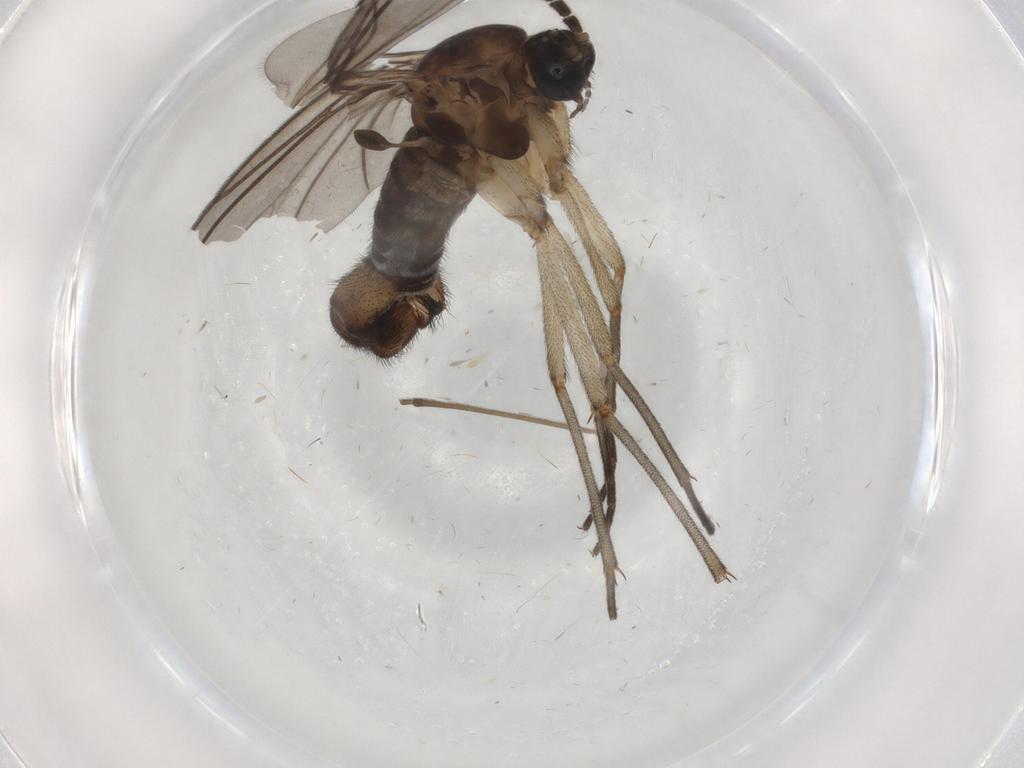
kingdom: Animalia
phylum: Arthropoda
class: Insecta
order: Diptera
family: Sciaridae
